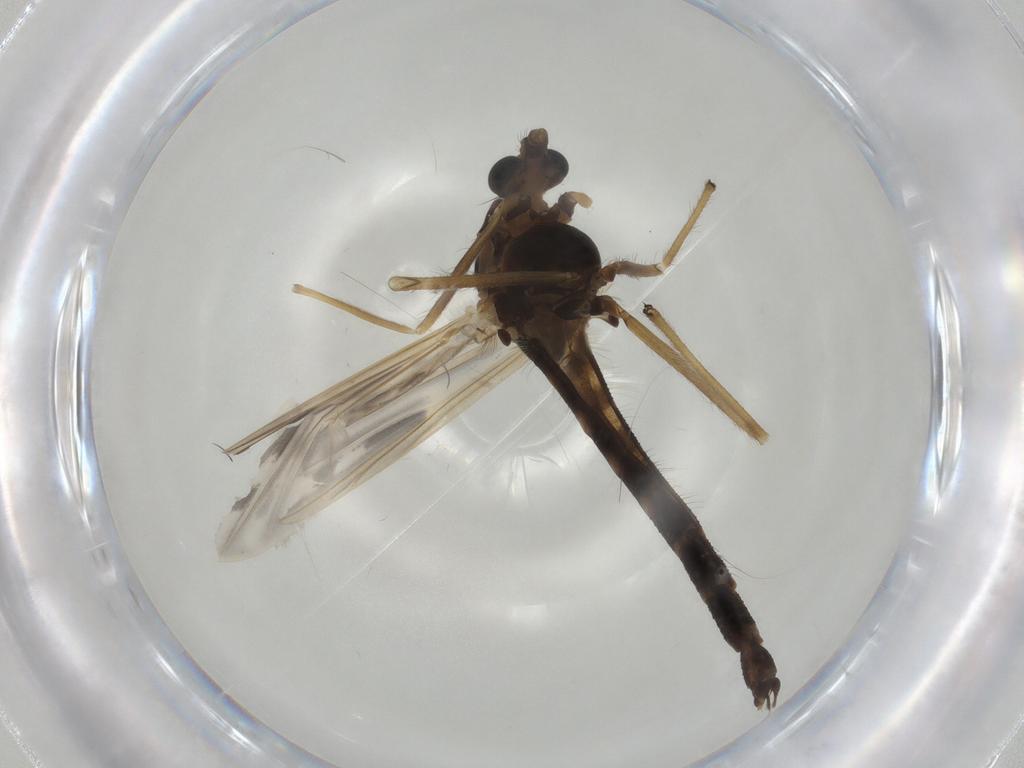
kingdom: Animalia
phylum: Arthropoda
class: Insecta
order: Diptera
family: Chironomidae
